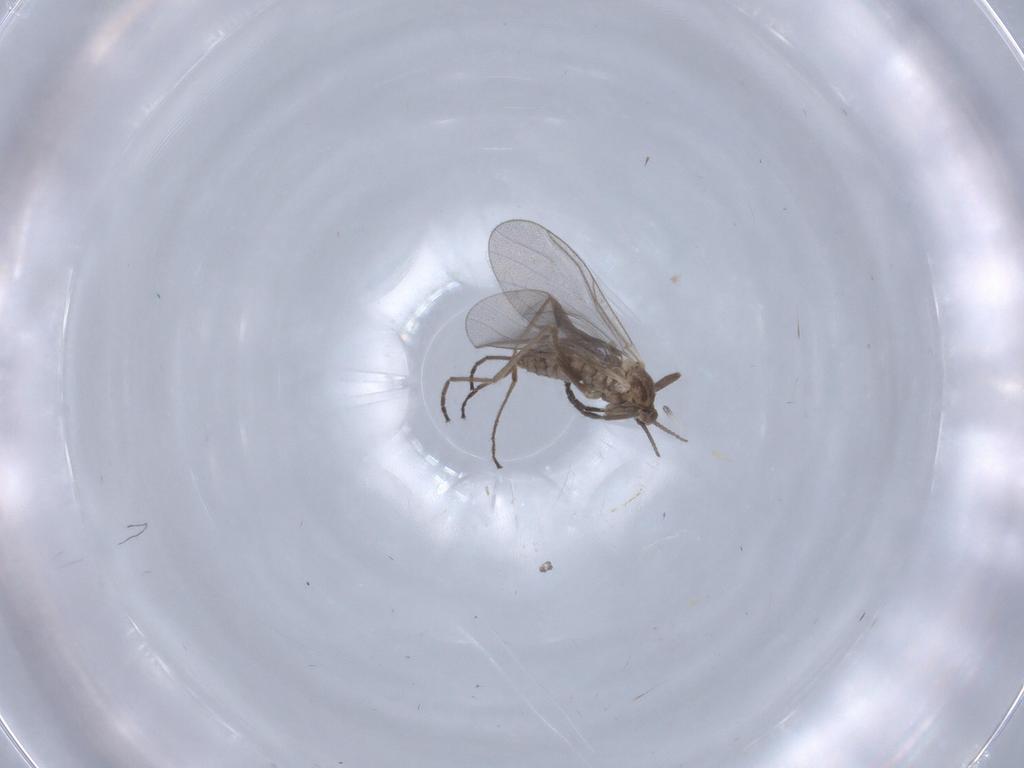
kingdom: Animalia
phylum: Arthropoda
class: Insecta
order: Diptera
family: Cecidomyiidae
